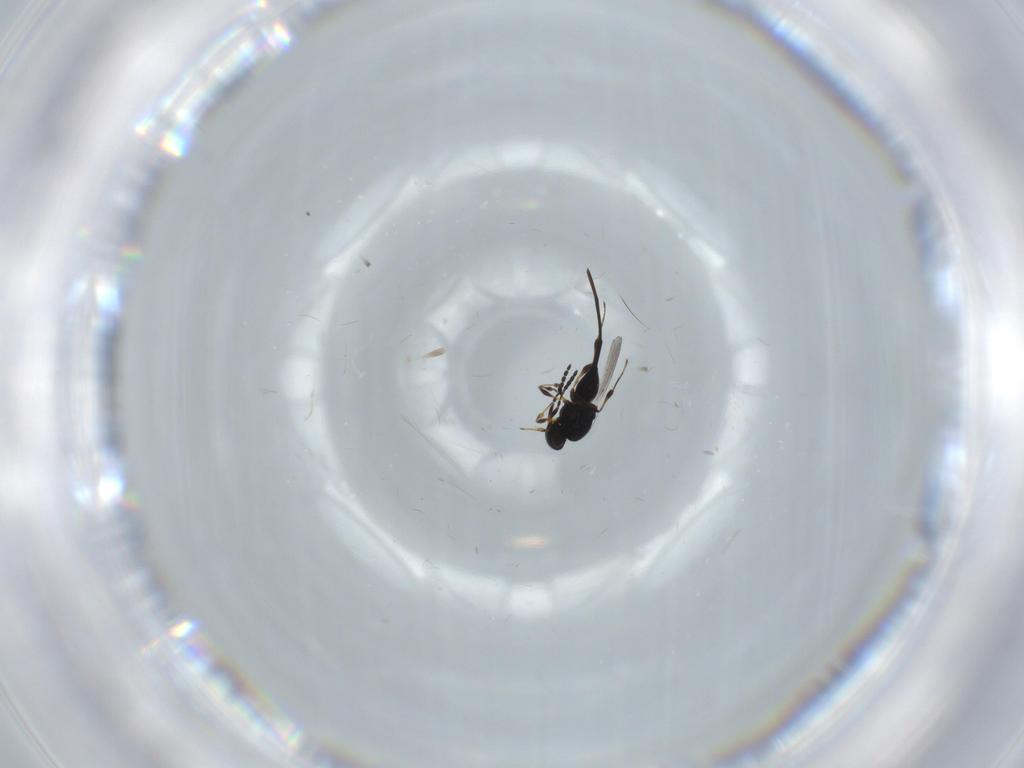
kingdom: Animalia
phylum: Arthropoda
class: Insecta
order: Hymenoptera
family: Platygastridae
